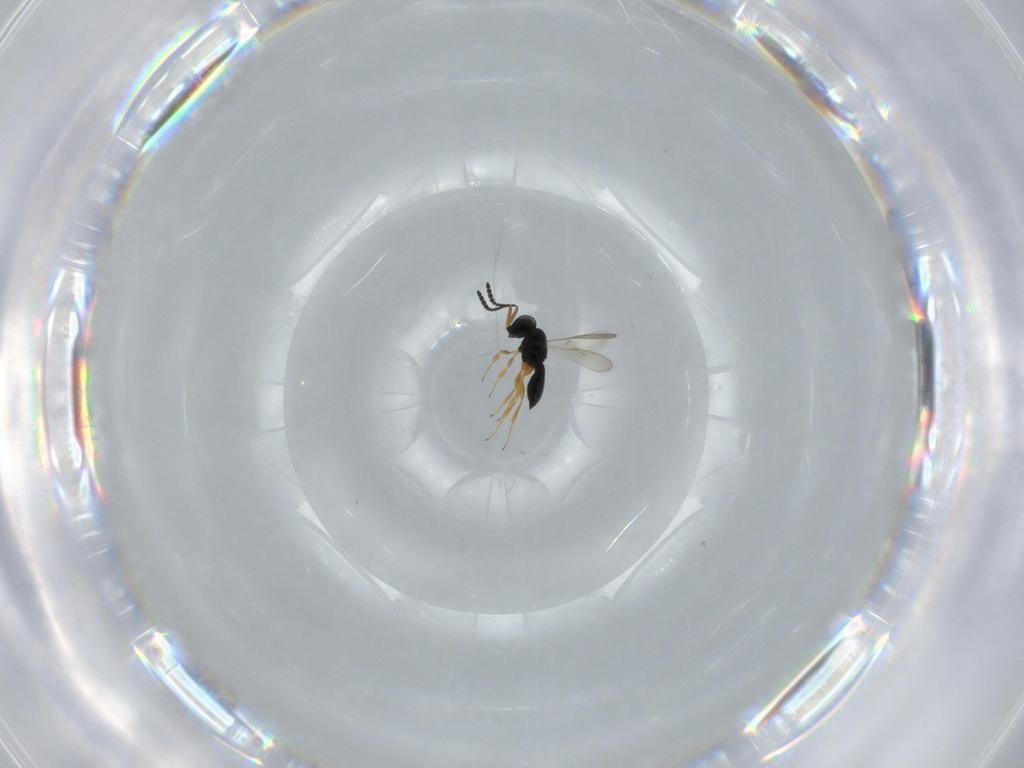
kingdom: Animalia
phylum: Arthropoda
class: Insecta
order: Hymenoptera
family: Scelionidae
